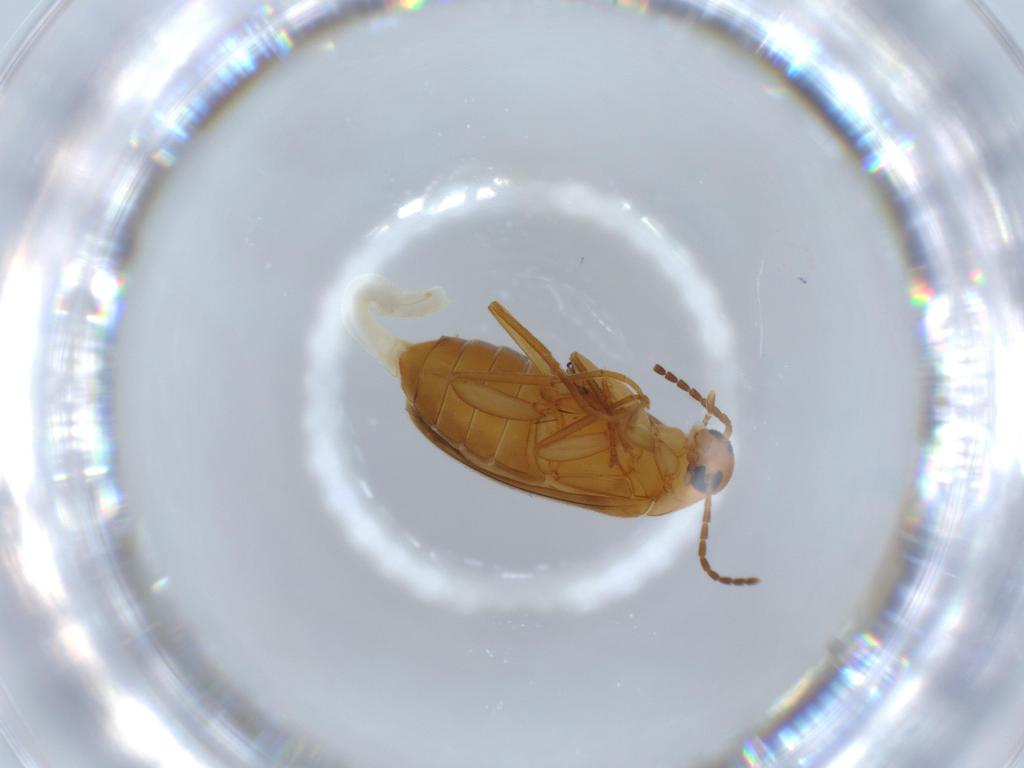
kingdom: Animalia
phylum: Arthropoda
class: Insecta
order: Coleoptera
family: Scraptiidae
